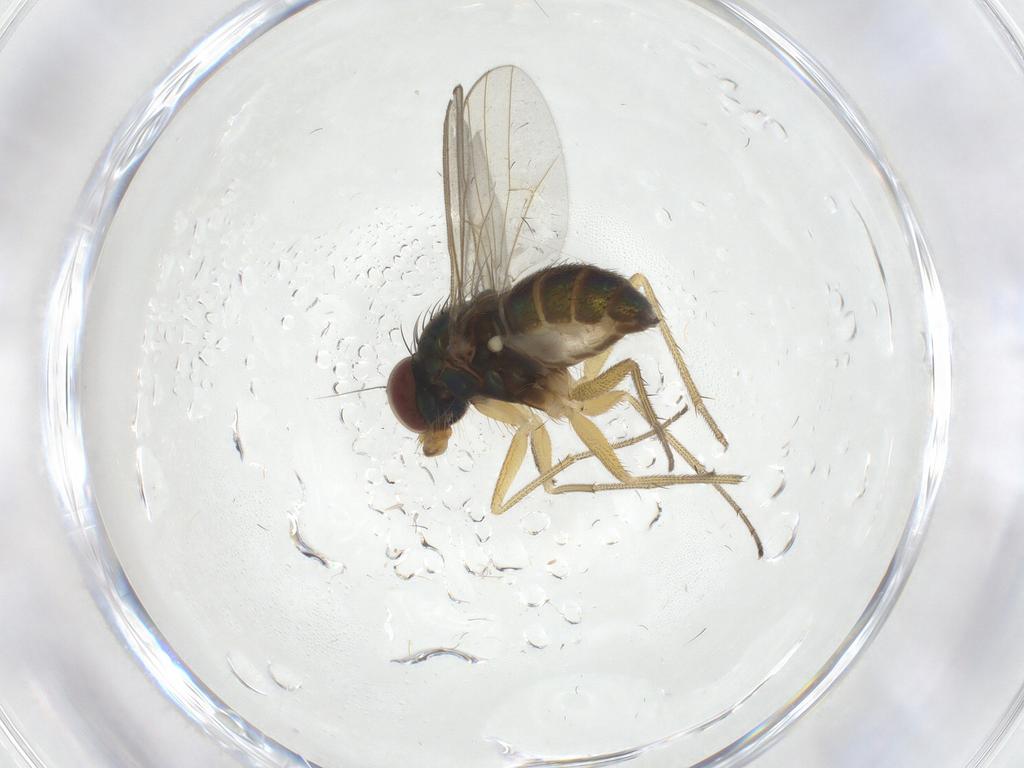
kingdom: Animalia
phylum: Arthropoda
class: Insecta
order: Diptera
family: Dolichopodidae
